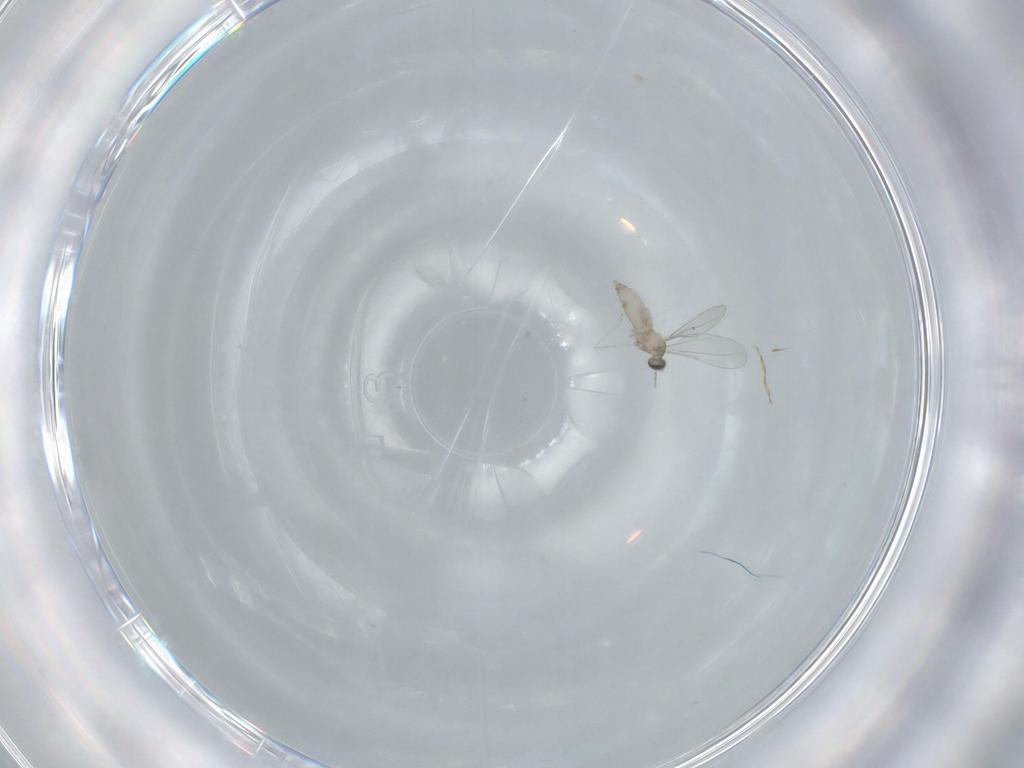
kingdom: Animalia
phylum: Arthropoda
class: Insecta
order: Diptera
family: Cecidomyiidae
